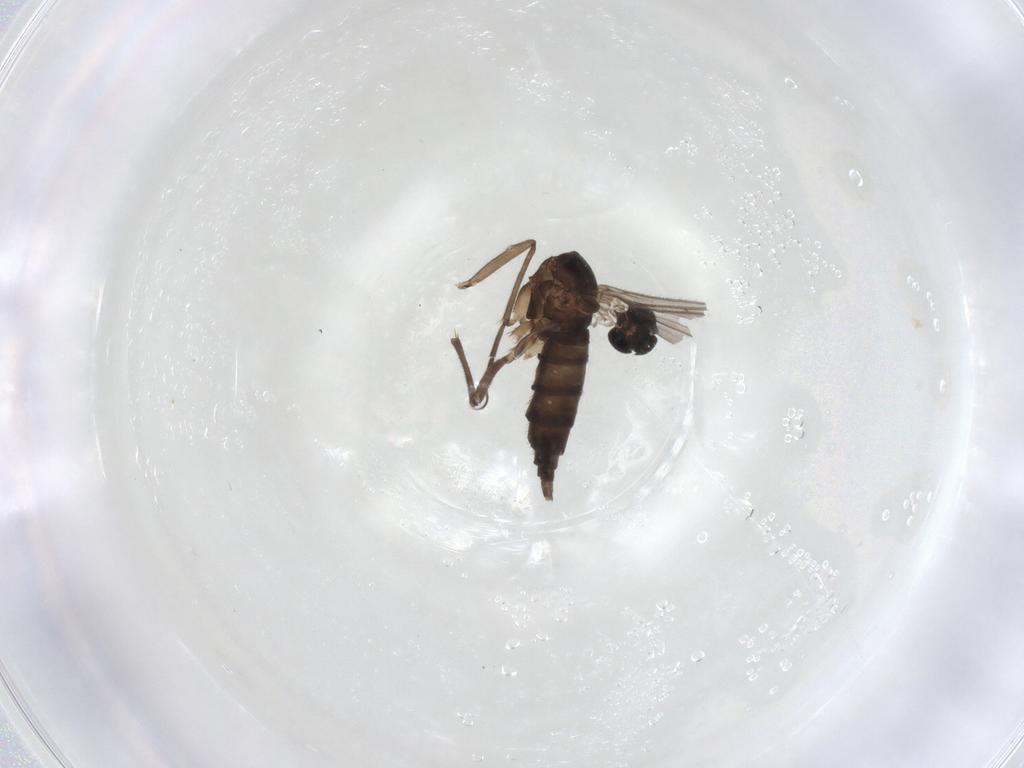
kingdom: Animalia
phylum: Arthropoda
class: Insecta
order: Diptera
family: Sciaridae
